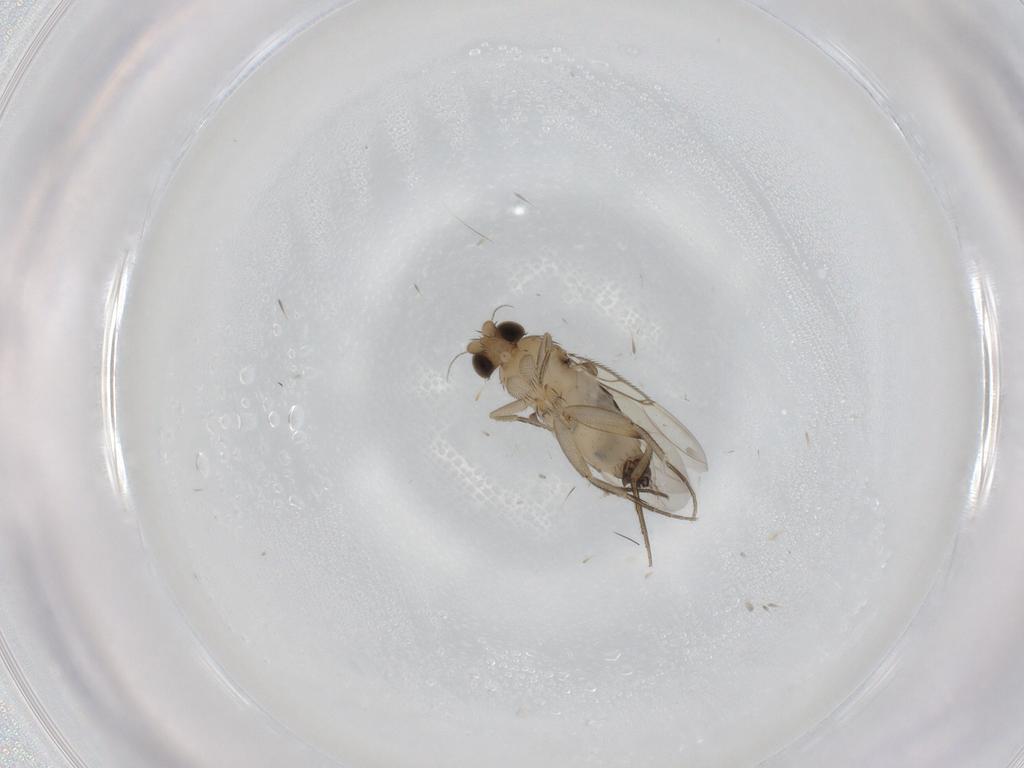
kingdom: Animalia
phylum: Arthropoda
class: Insecta
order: Diptera
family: Phoridae
